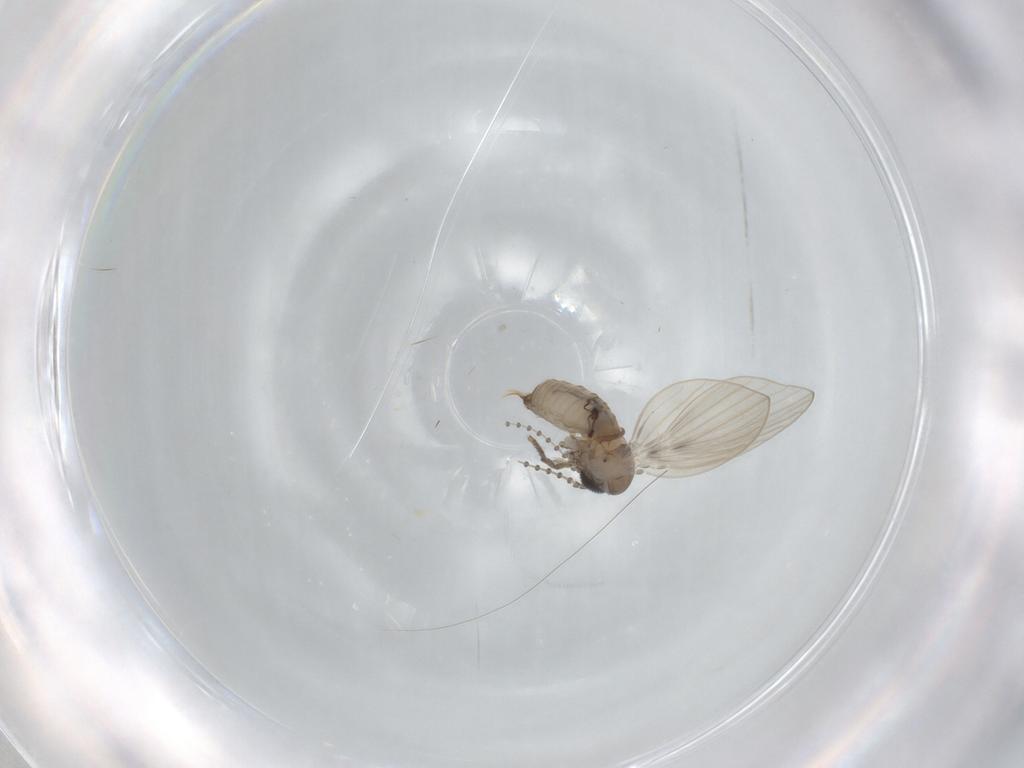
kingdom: Animalia
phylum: Arthropoda
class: Insecta
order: Diptera
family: Psychodidae
